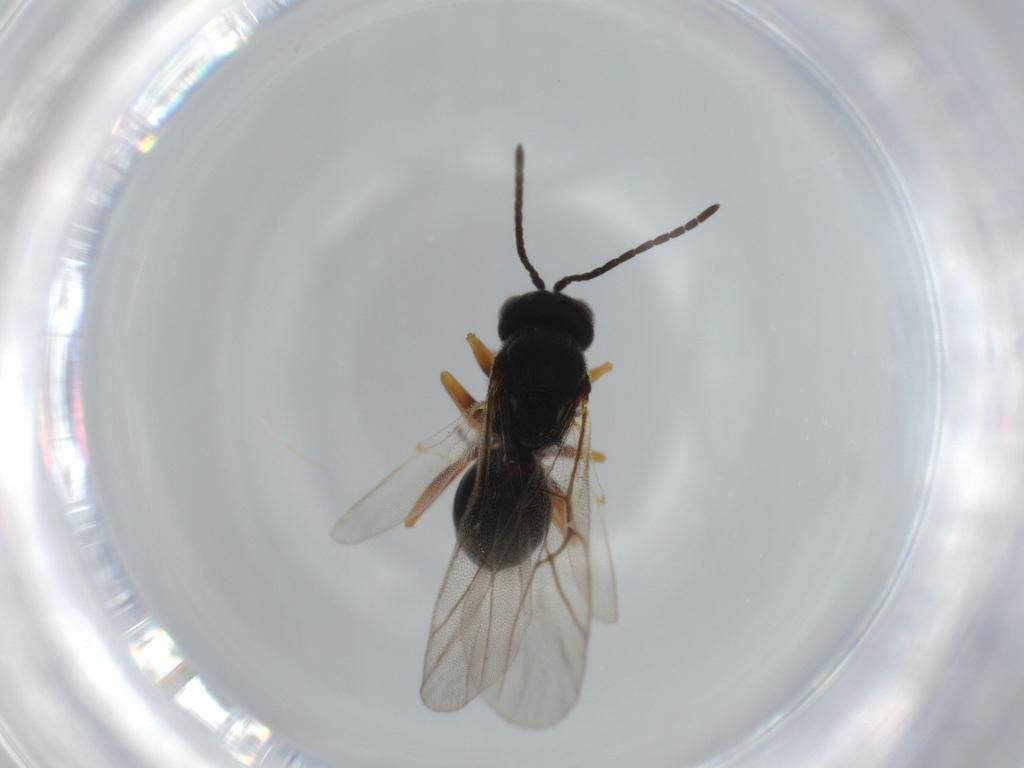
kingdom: Animalia
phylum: Arthropoda
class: Insecta
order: Hymenoptera
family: Cynipidae
